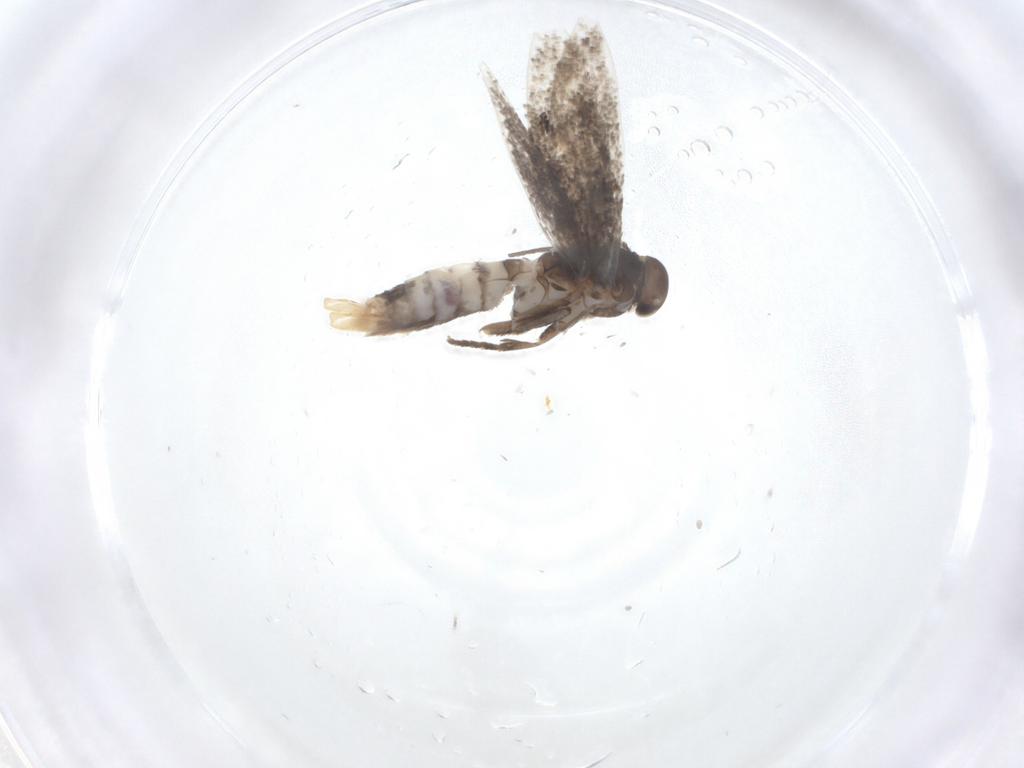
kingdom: Animalia
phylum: Arthropoda
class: Insecta
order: Lepidoptera
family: Elachistidae
